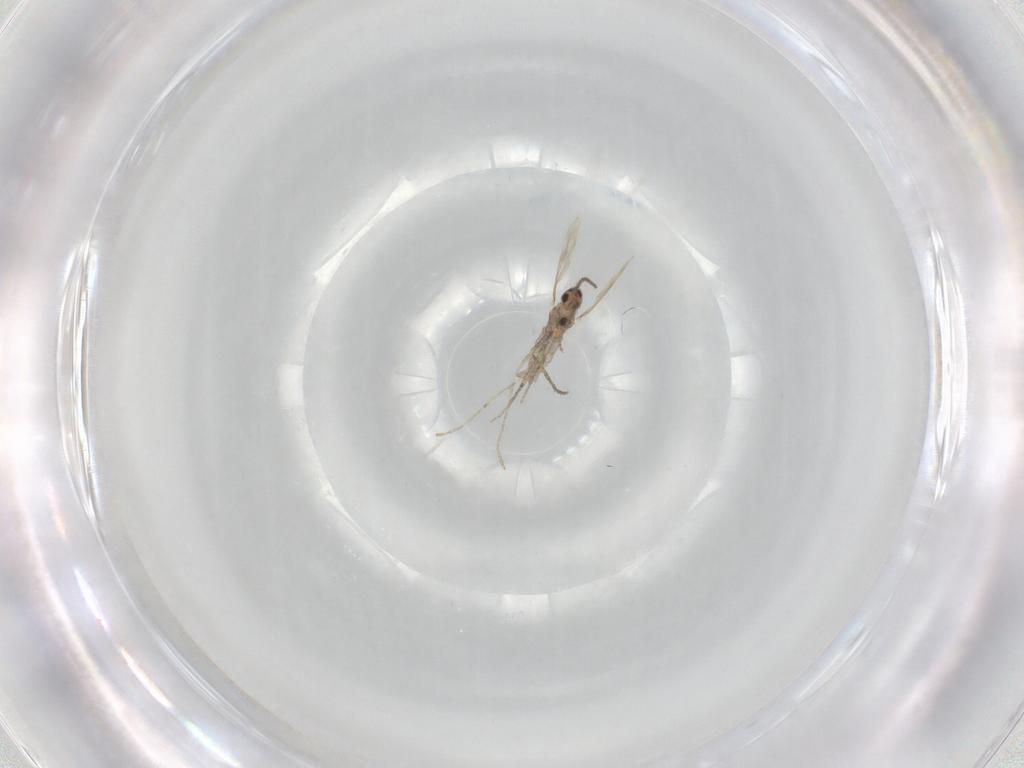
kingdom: Animalia
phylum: Arthropoda
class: Insecta
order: Diptera
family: Cecidomyiidae
